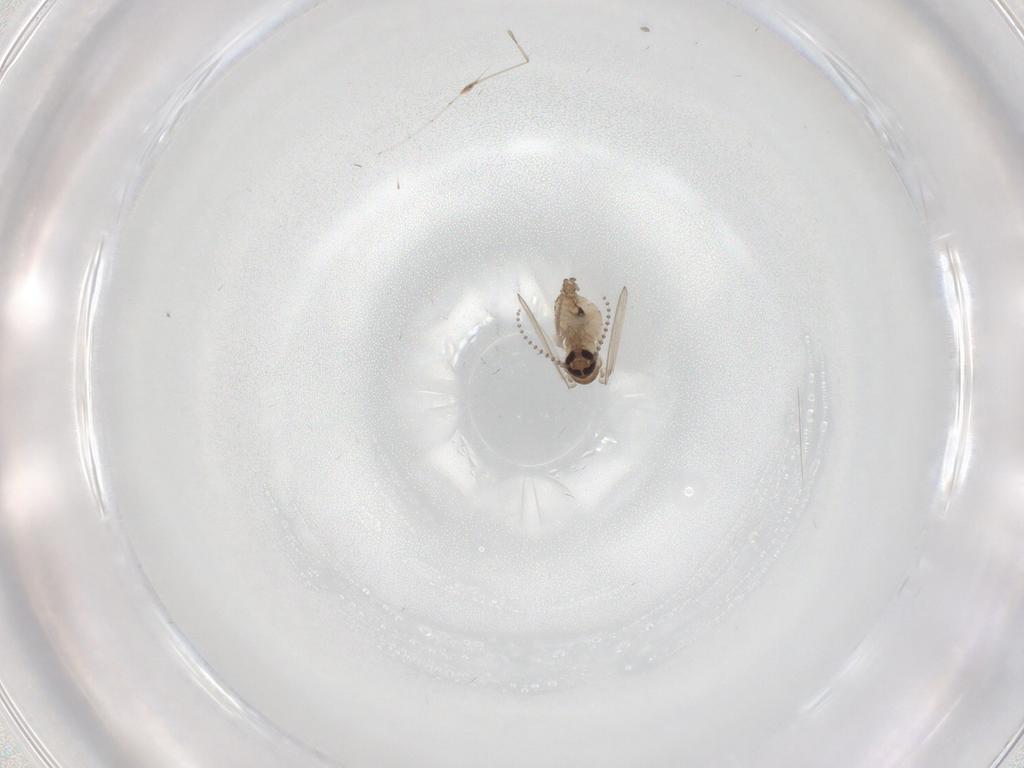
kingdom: Animalia
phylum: Arthropoda
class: Insecta
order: Diptera
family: Psychodidae
